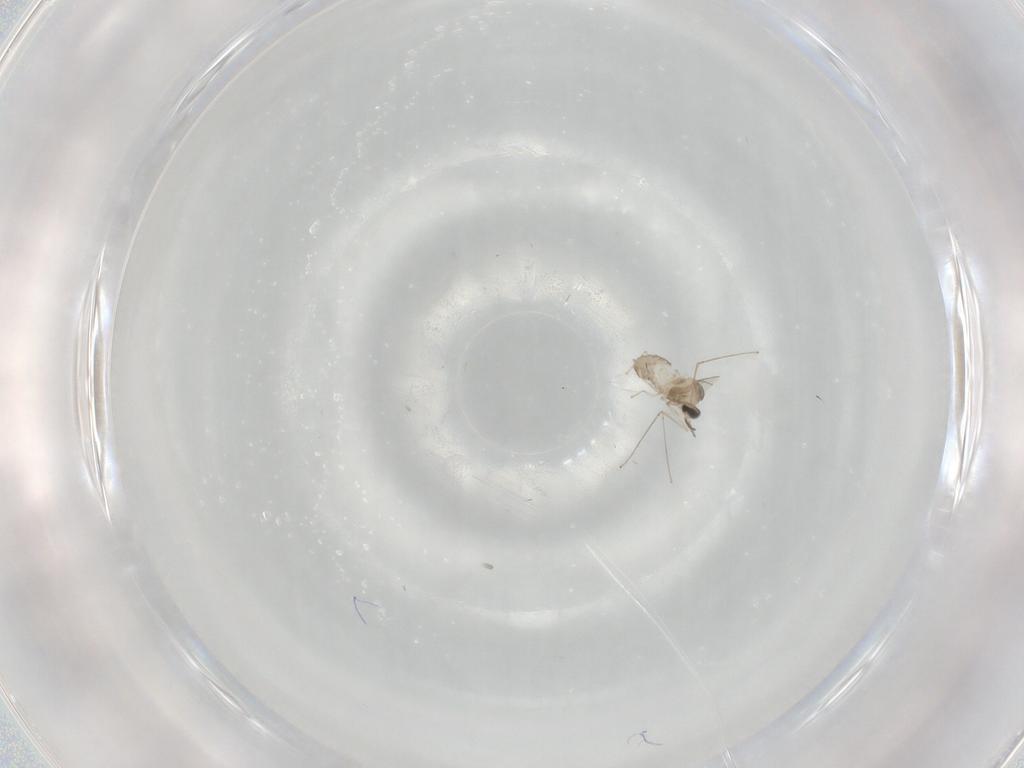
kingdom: Animalia
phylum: Arthropoda
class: Insecta
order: Diptera
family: Cecidomyiidae
